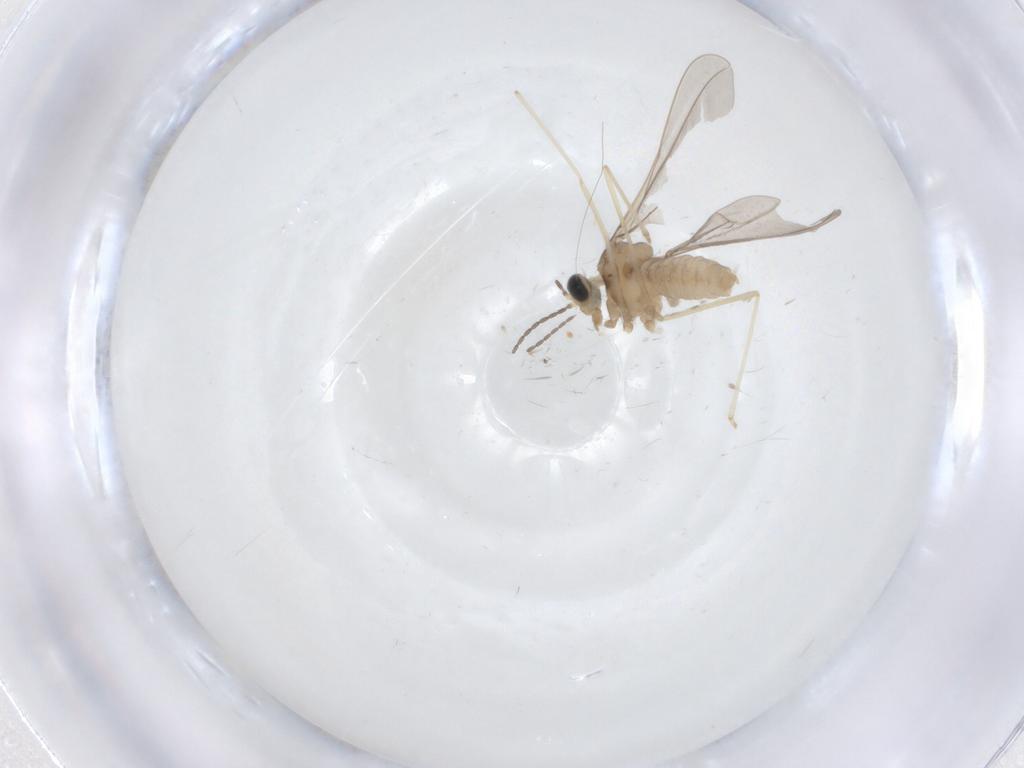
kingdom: Animalia
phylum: Arthropoda
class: Insecta
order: Diptera
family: Cecidomyiidae
